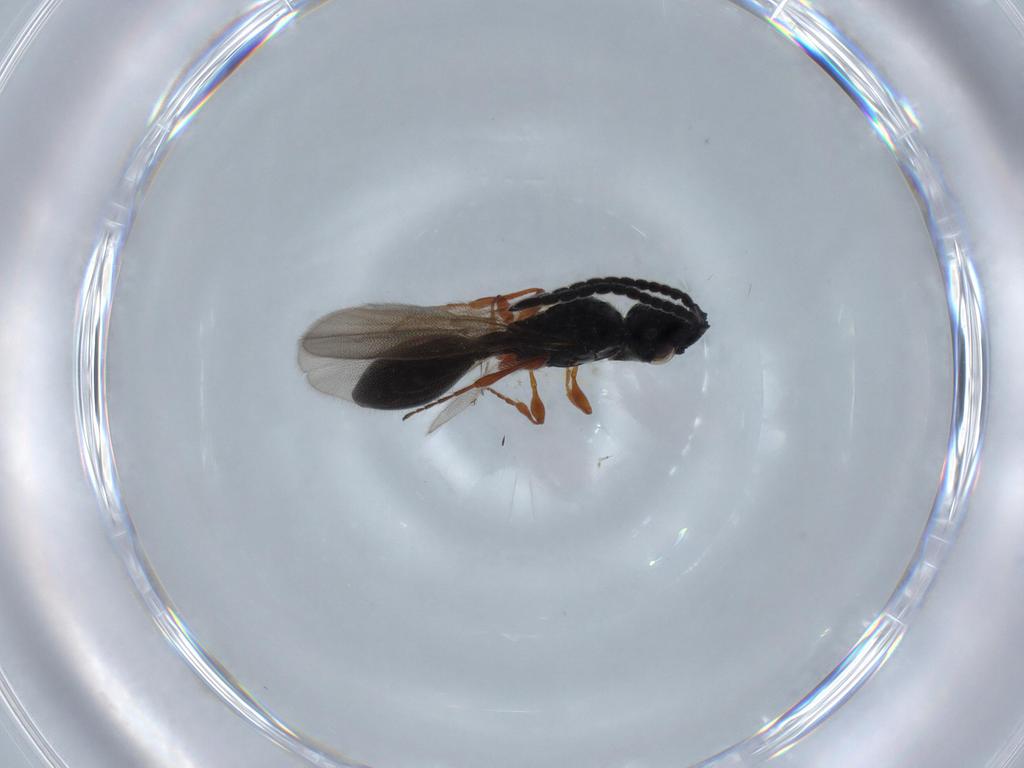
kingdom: Animalia
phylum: Arthropoda
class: Insecta
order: Hymenoptera
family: Diapriidae
